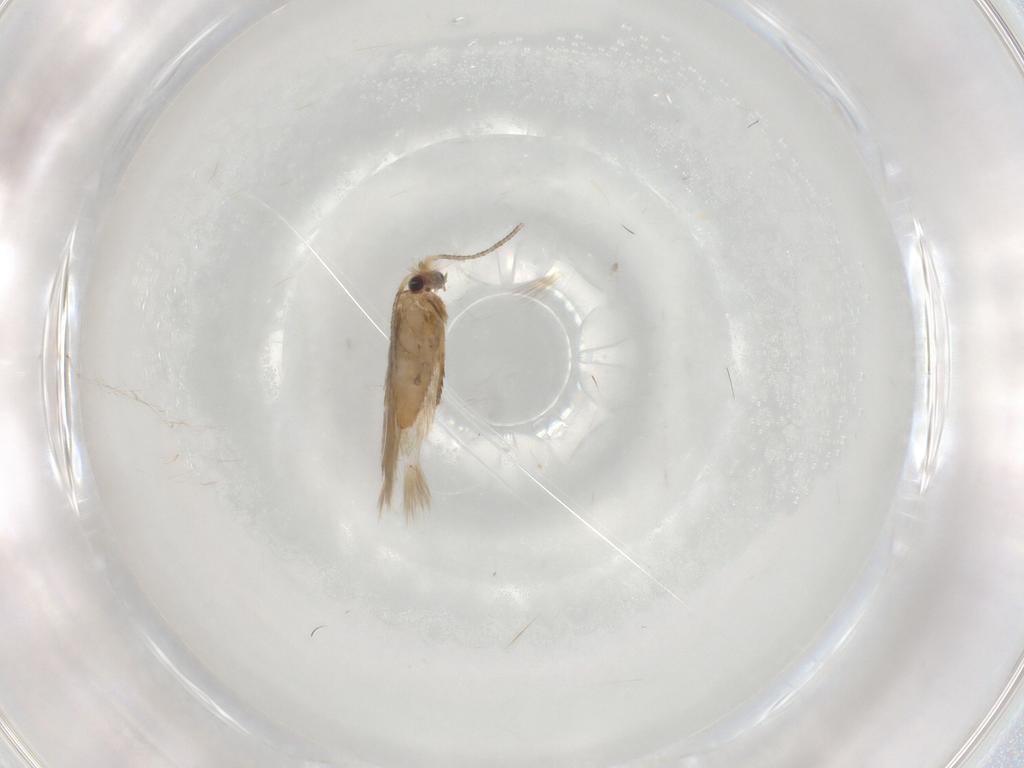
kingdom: Animalia
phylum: Arthropoda
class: Insecta
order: Lepidoptera
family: Nepticulidae
